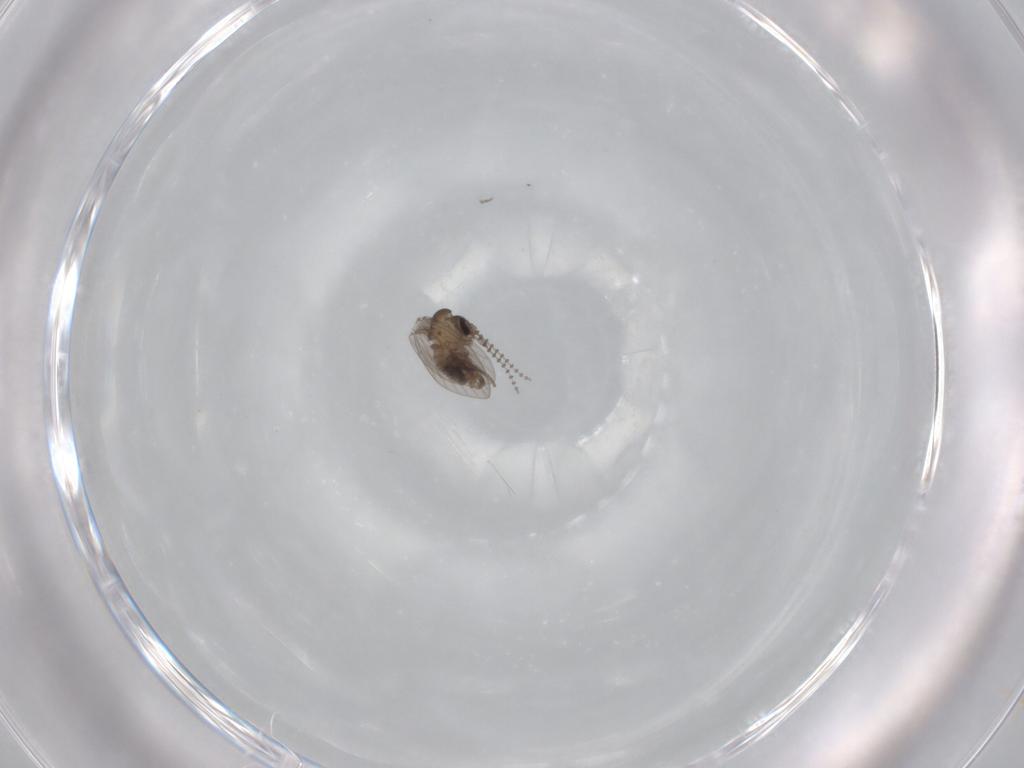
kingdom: Animalia
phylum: Arthropoda
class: Insecta
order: Diptera
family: Psychodidae
